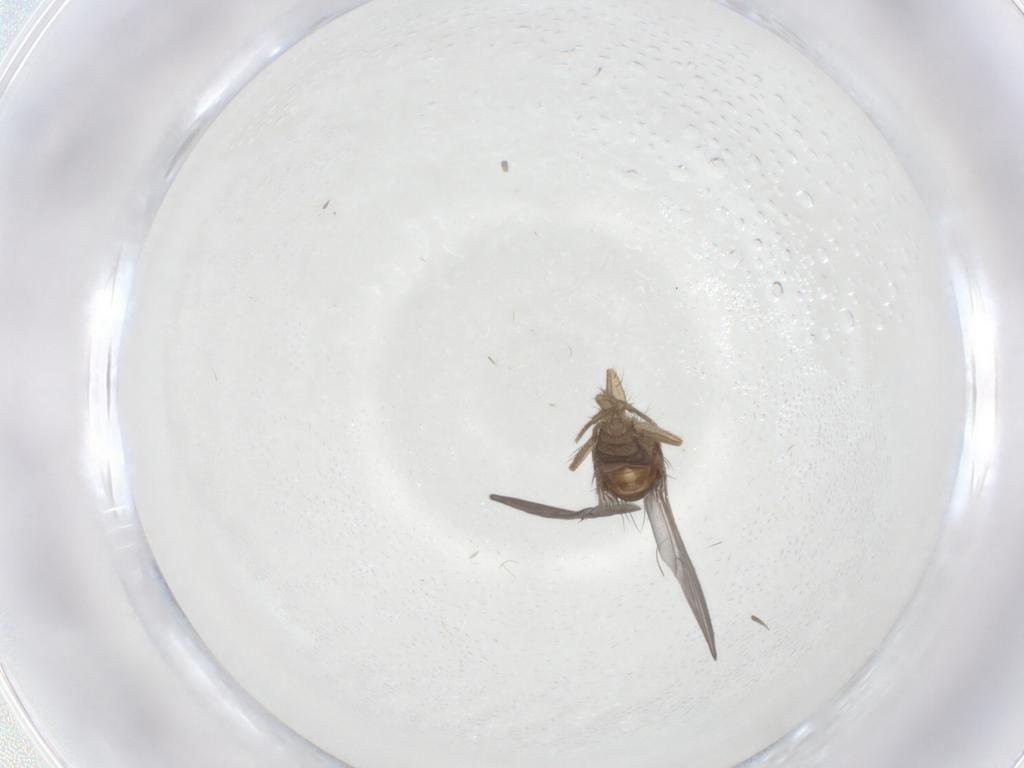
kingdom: Animalia
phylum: Arthropoda
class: Insecta
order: Diptera
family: Drosophilidae
